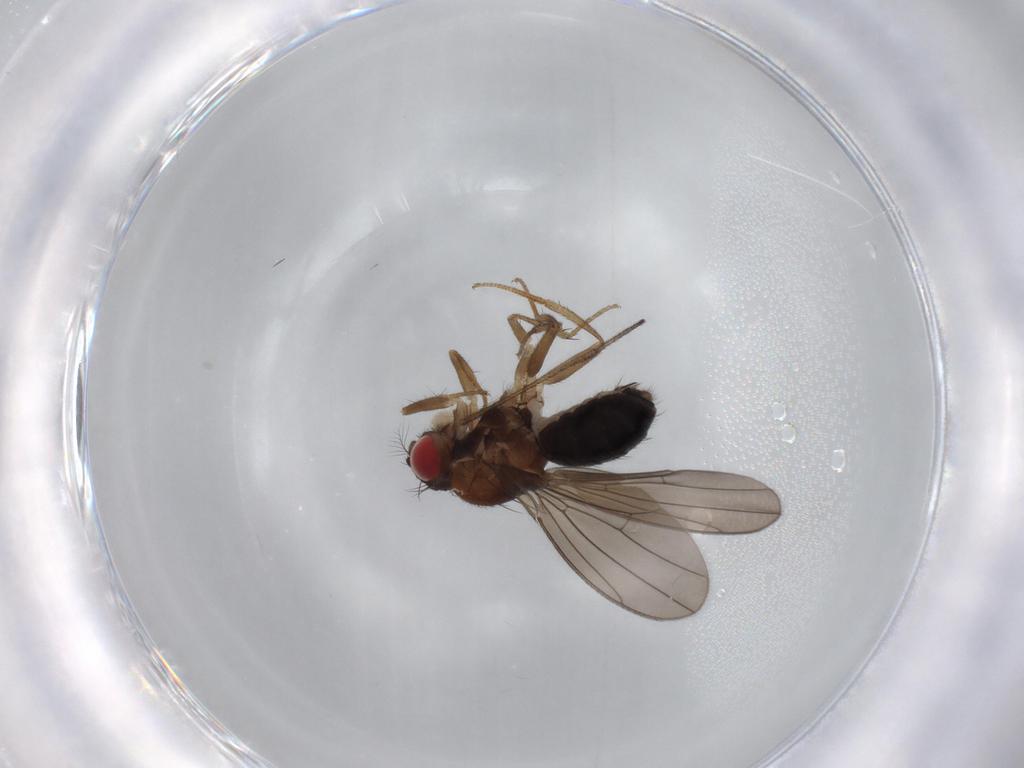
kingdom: Animalia
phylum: Arthropoda
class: Insecta
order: Diptera
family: Drosophilidae
